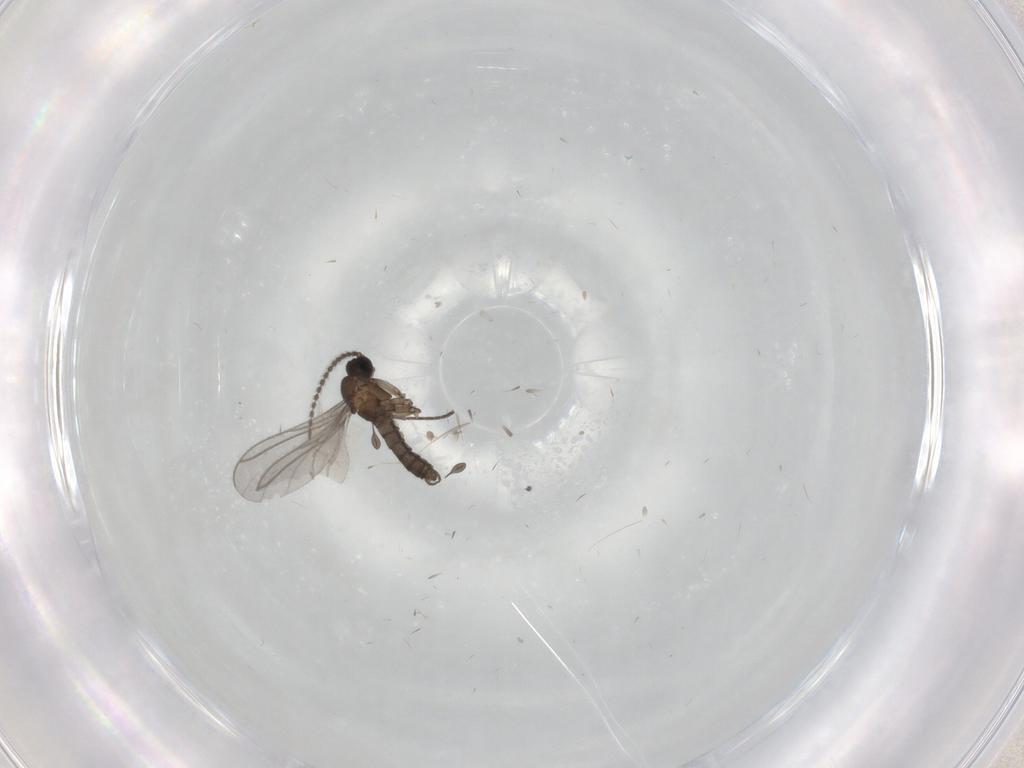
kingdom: Animalia
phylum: Arthropoda
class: Insecta
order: Diptera
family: Sciaridae
